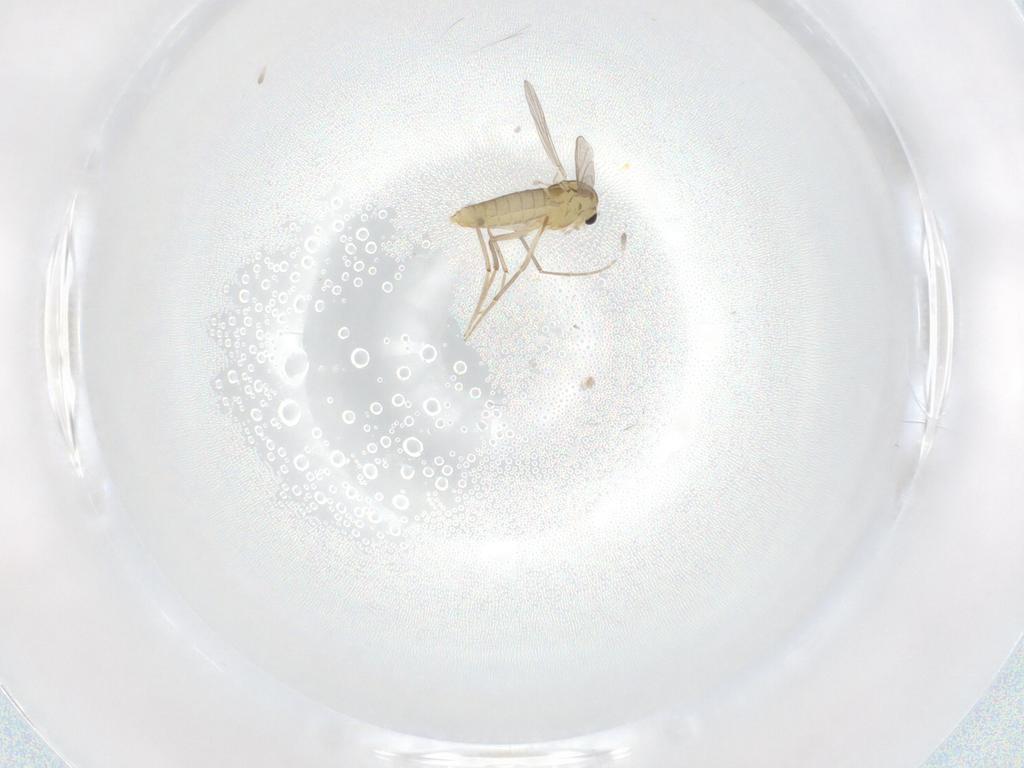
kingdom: Animalia
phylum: Arthropoda
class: Insecta
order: Diptera
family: Chironomidae
